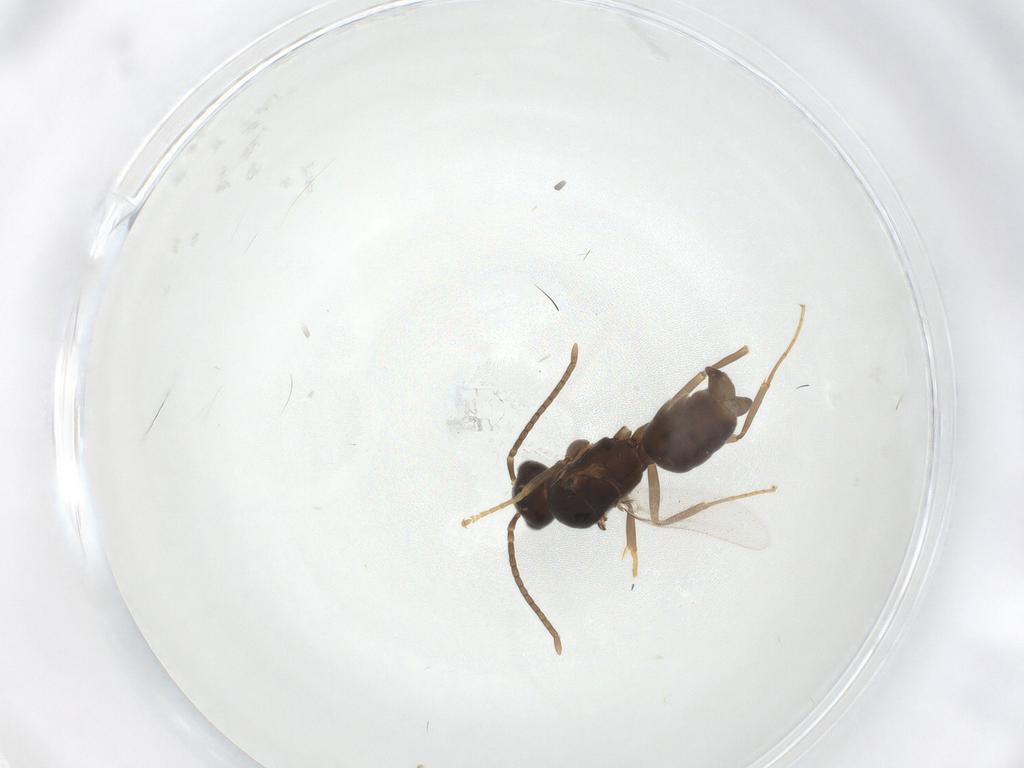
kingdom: Animalia
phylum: Arthropoda
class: Insecta
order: Hymenoptera
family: Formicidae
